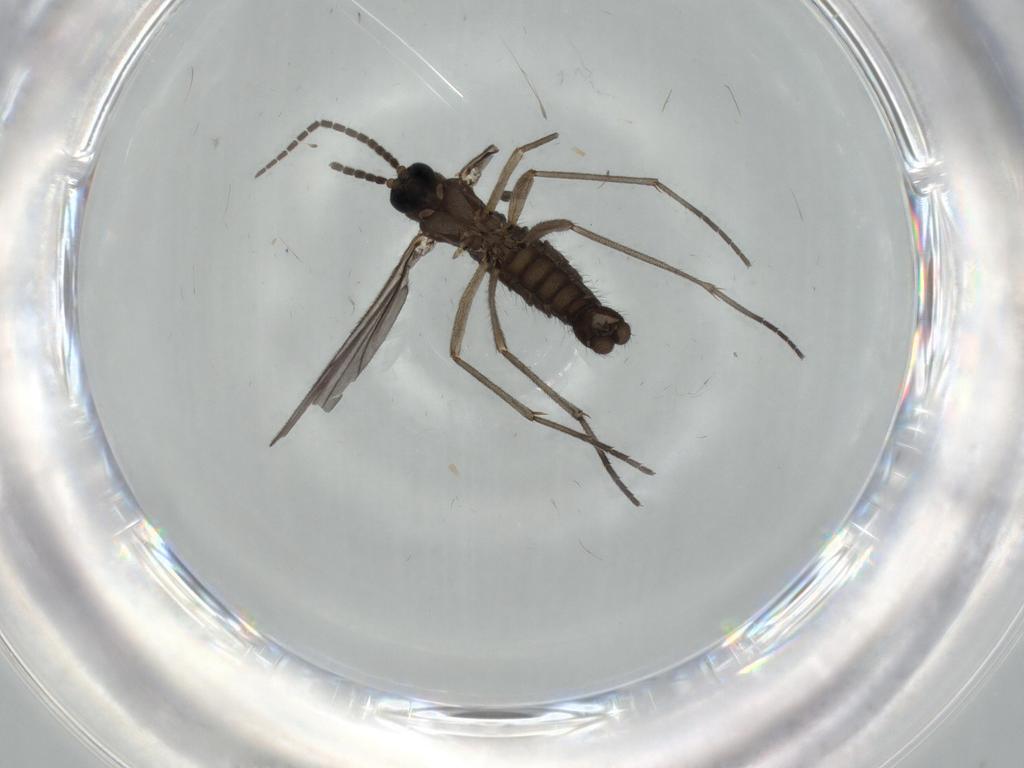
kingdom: Animalia
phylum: Arthropoda
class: Insecta
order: Diptera
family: Sciaridae
